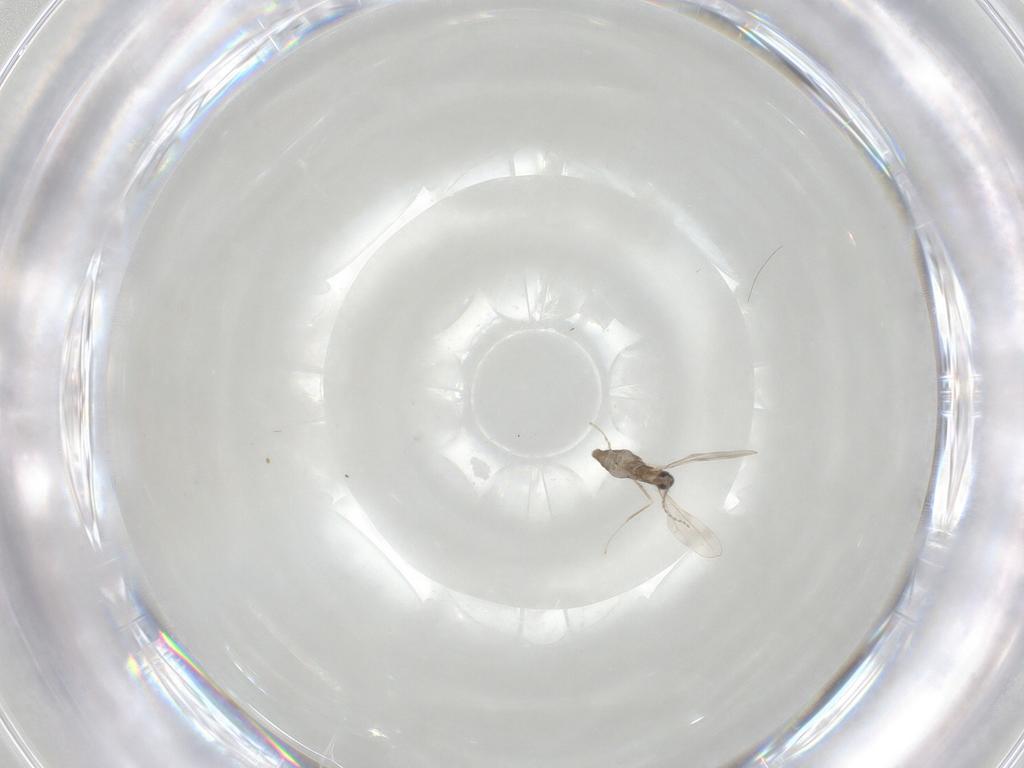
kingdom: Animalia
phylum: Arthropoda
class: Insecta
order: Diptera
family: Cecidomyiidae
